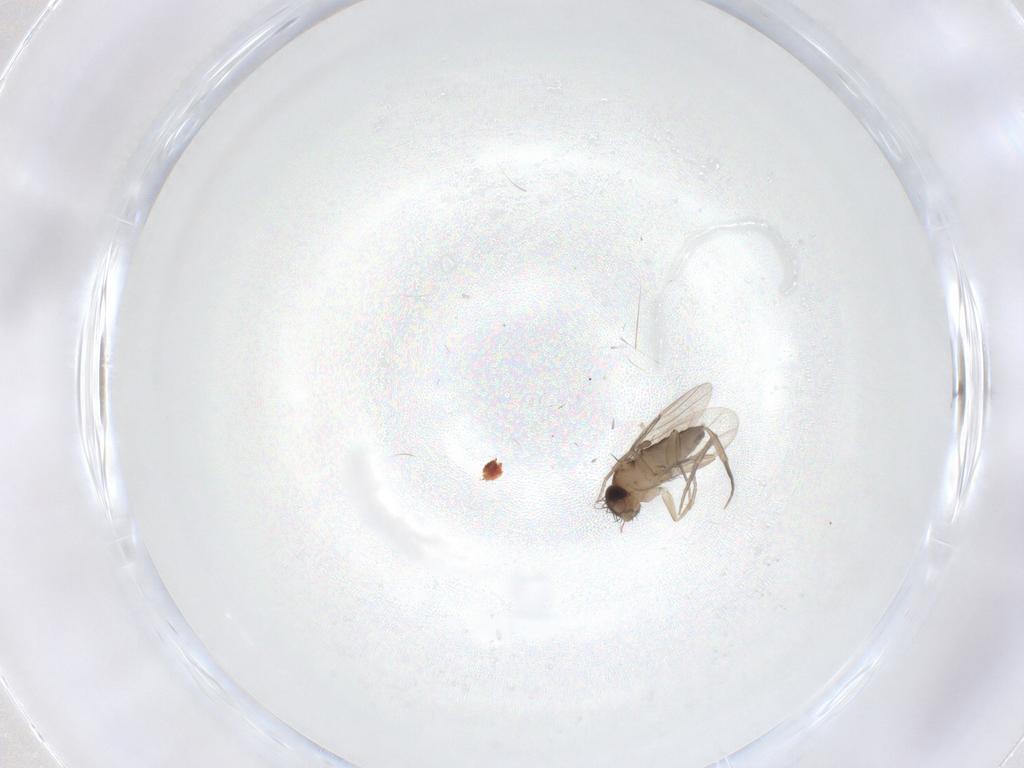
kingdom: Animalia
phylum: Arthropoda
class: Insecta
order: Diptera
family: Phoridae
